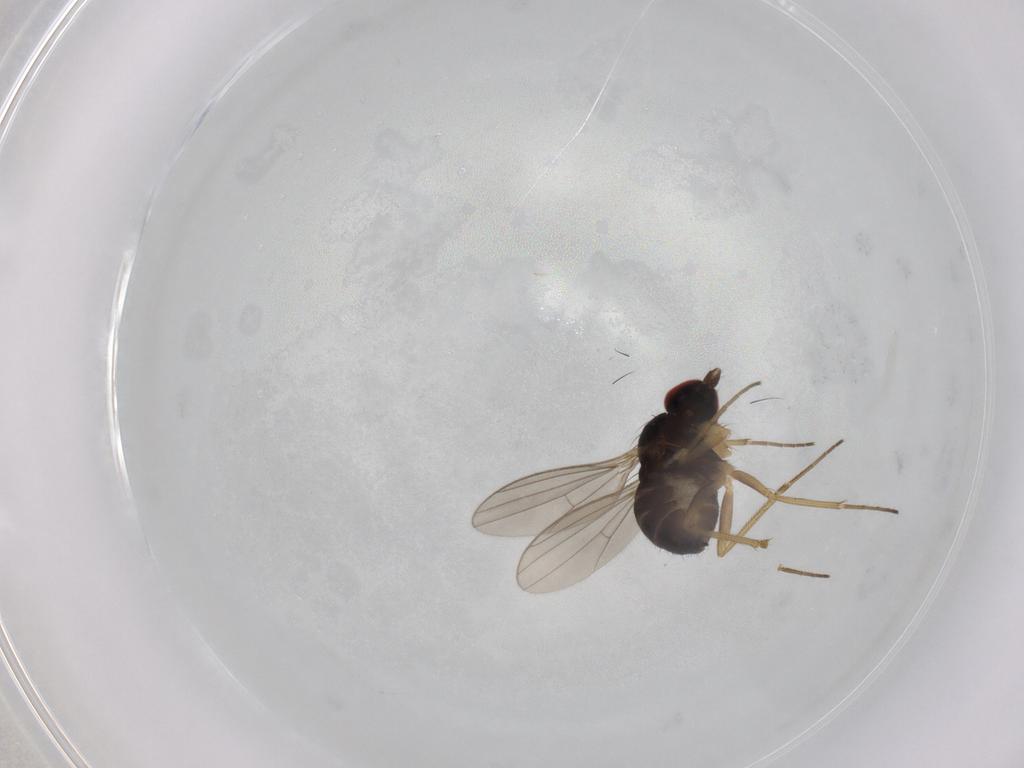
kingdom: Animalia
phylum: Arthropoda
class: Insecta
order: Diptera
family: Dolichopodidae
